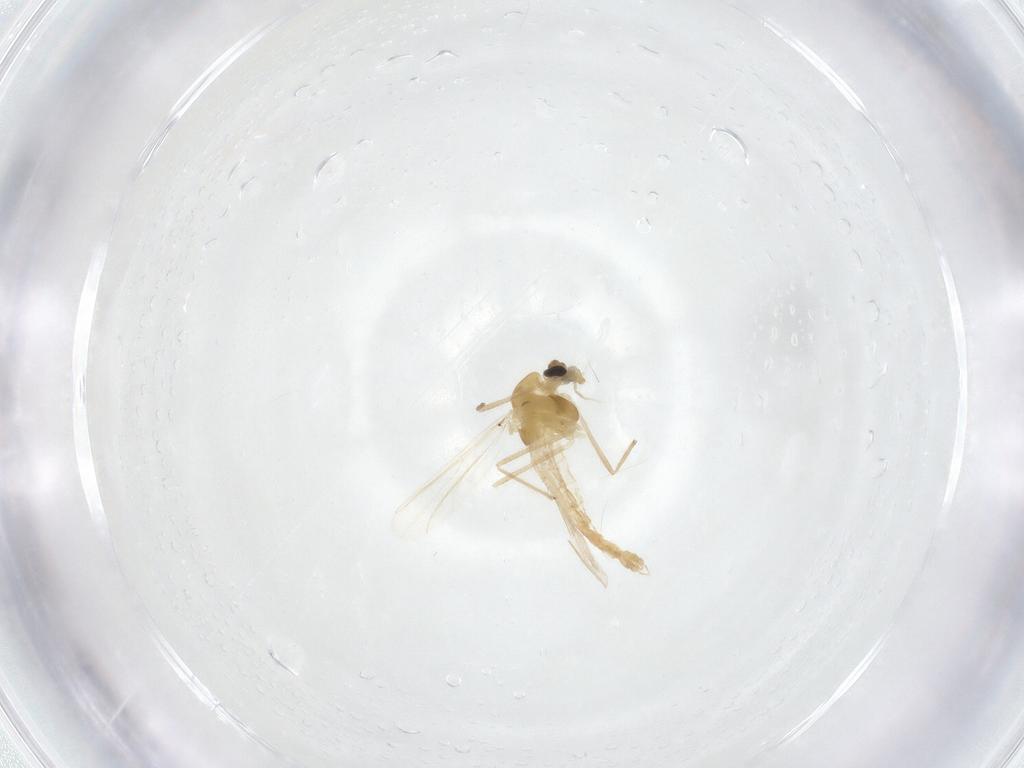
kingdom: Animalia
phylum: Arthropoda
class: Insecta
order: Diptera
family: Chironomidae
